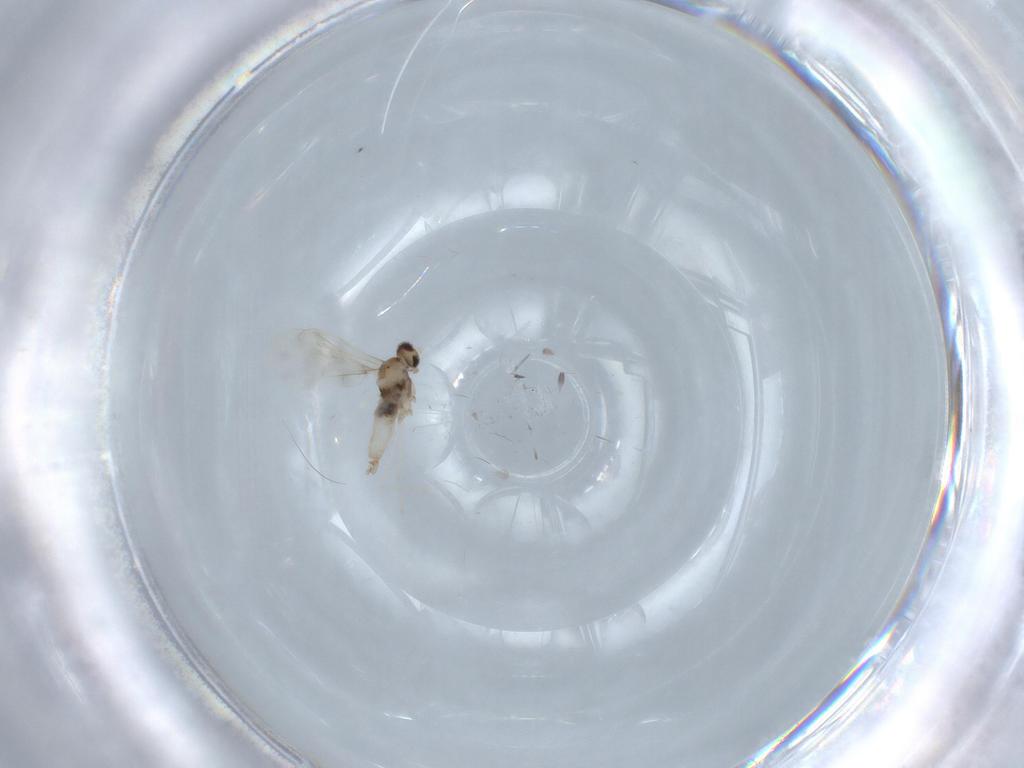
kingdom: Animalia
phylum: Arthropoda
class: Insecta
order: Diptera
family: Cecidomyiidae
